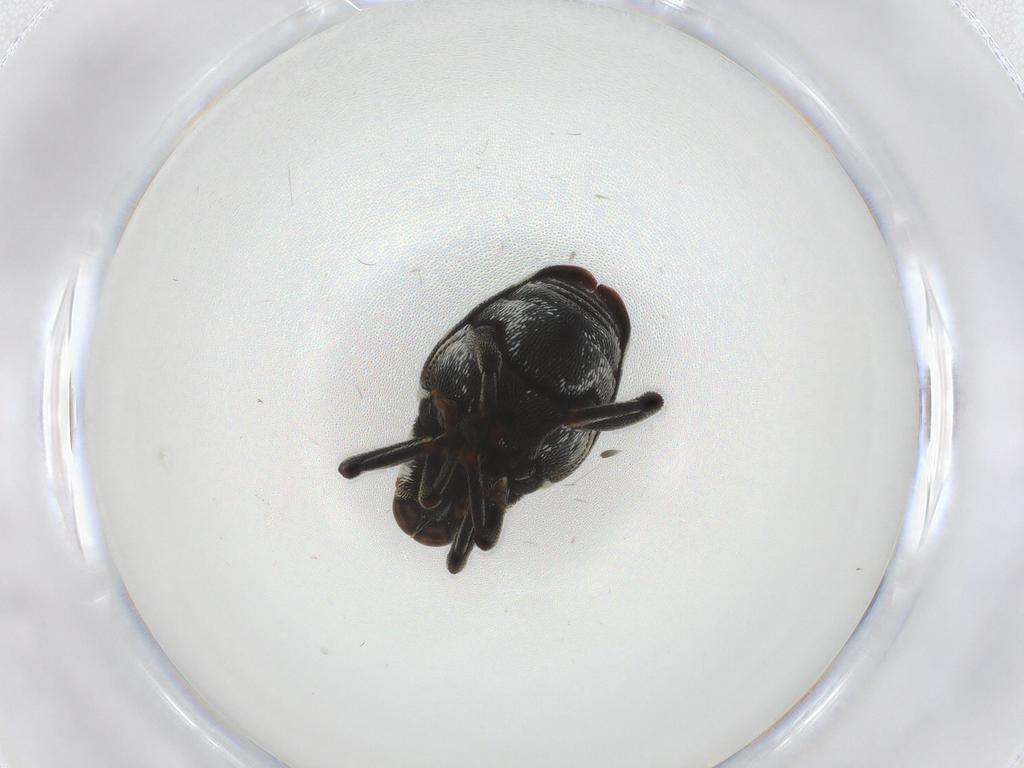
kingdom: Animalia
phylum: Arthropoda
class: Insecta
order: Coleoptera
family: Curculionidae
